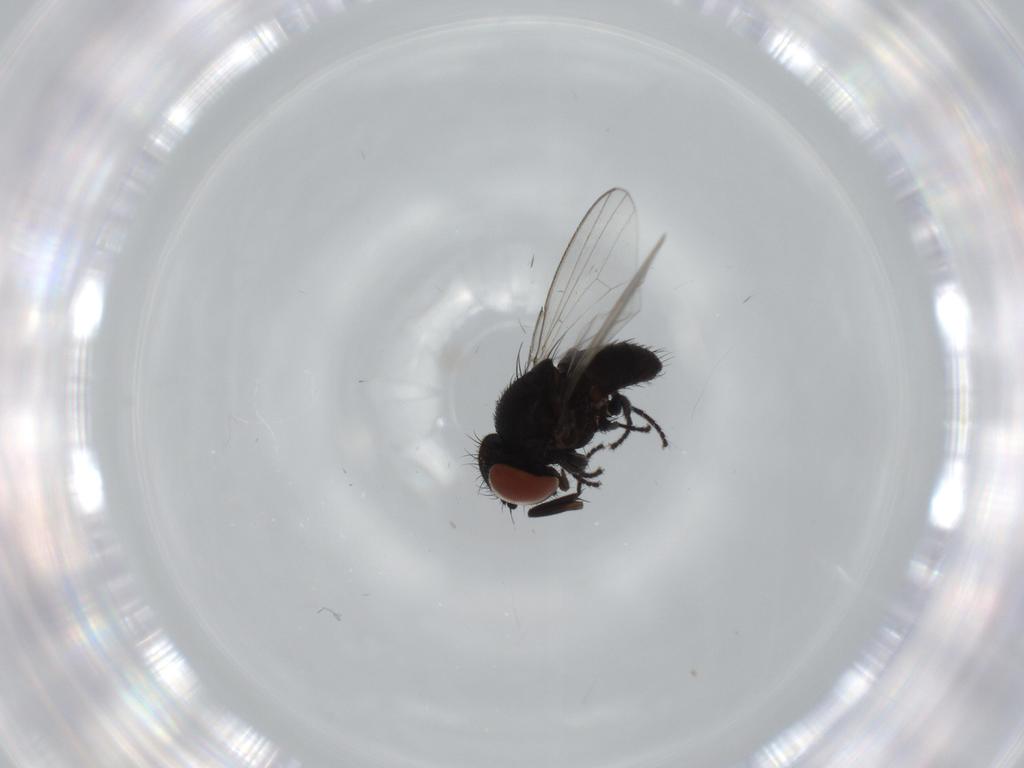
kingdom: Animalia
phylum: Arthropoda
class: Insecta
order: Diptera
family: Milichiidae
